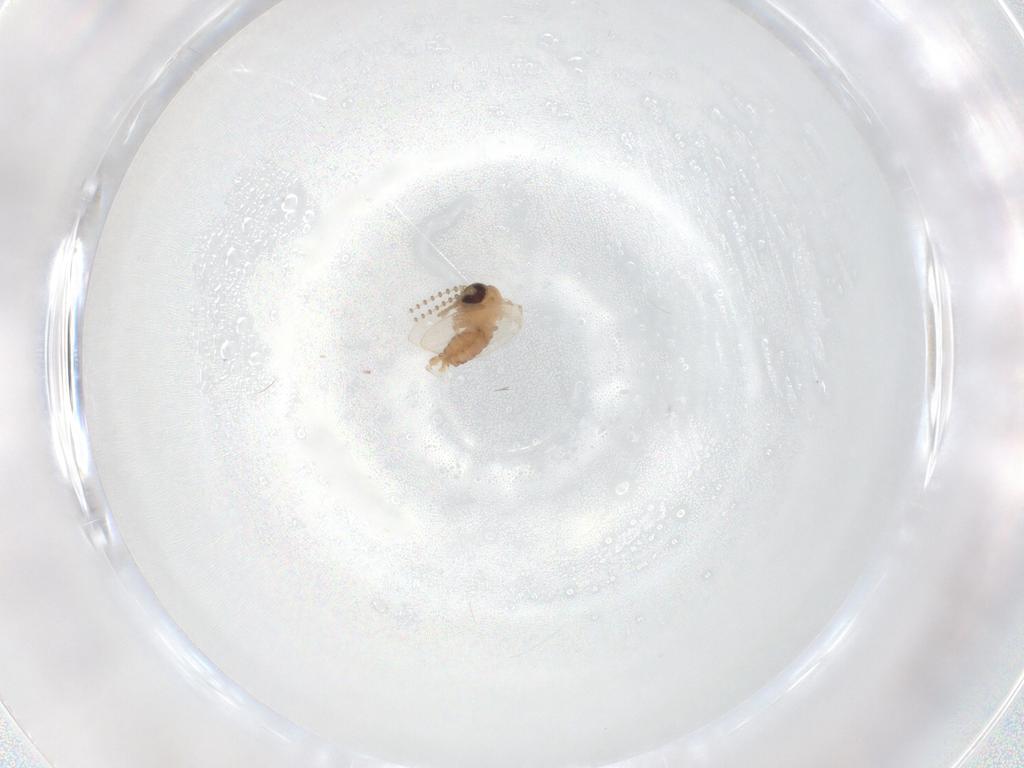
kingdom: Animalia
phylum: Arthropoda
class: Insecta
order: Diptera
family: Psychodidae
